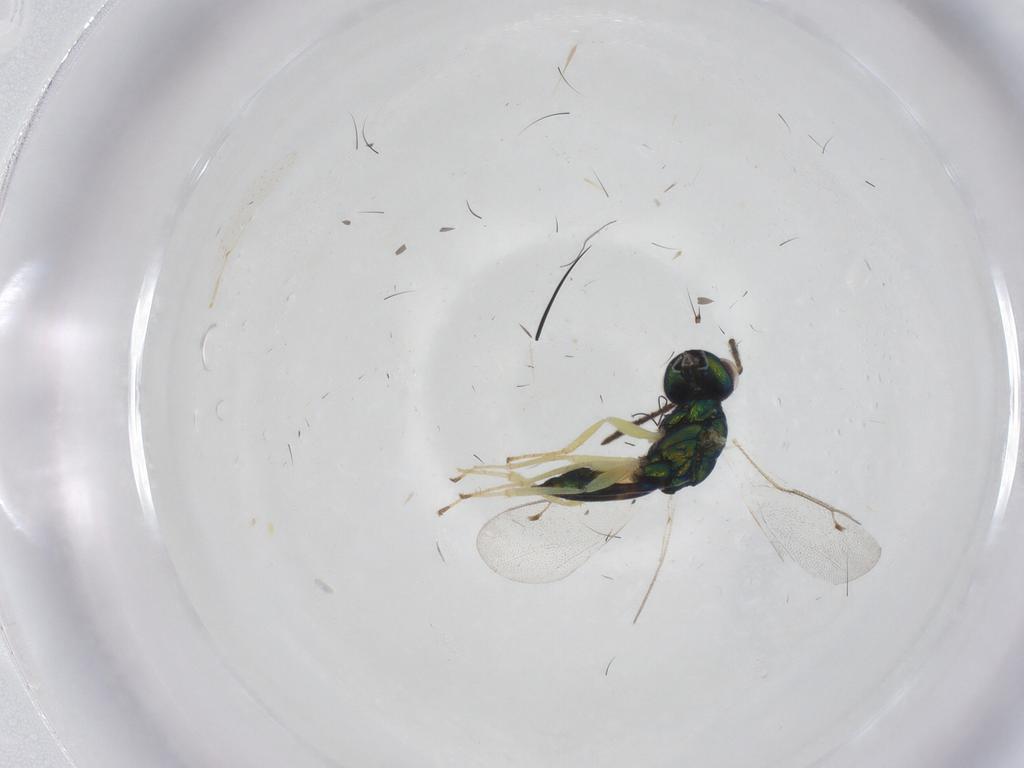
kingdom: Animalia
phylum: Arthropoda
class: Insecta
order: Hymenoptera
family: Pteromalidae
